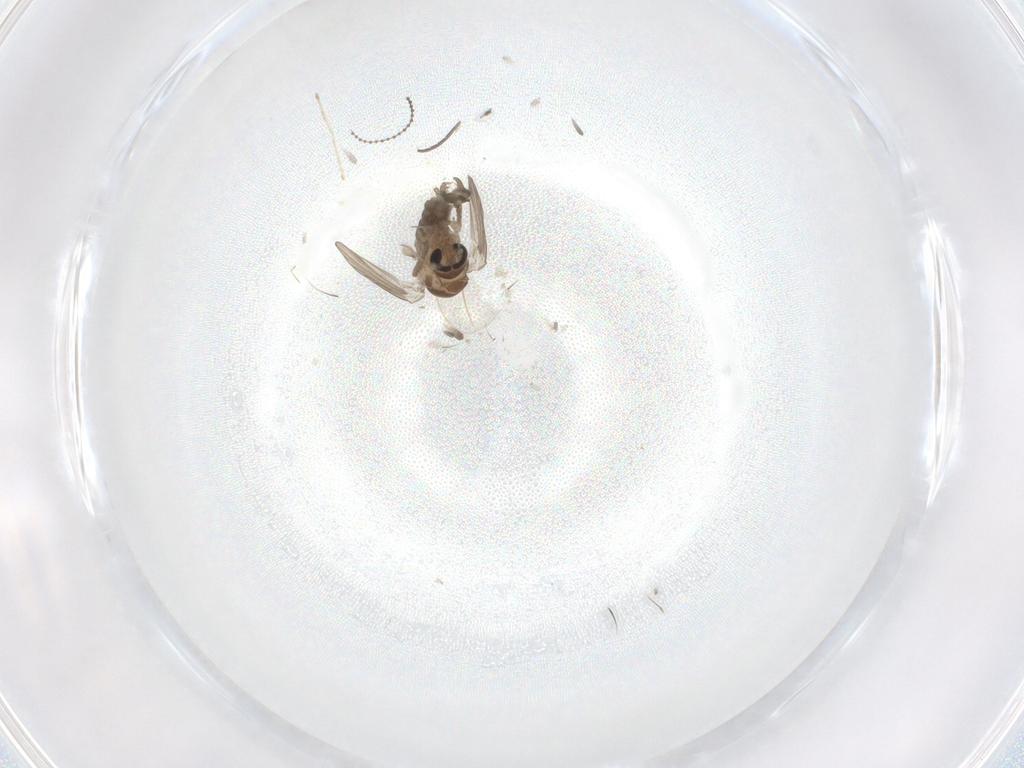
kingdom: Animalia
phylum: Arthropoda
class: Insecta
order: Diptera
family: Psychodidae
